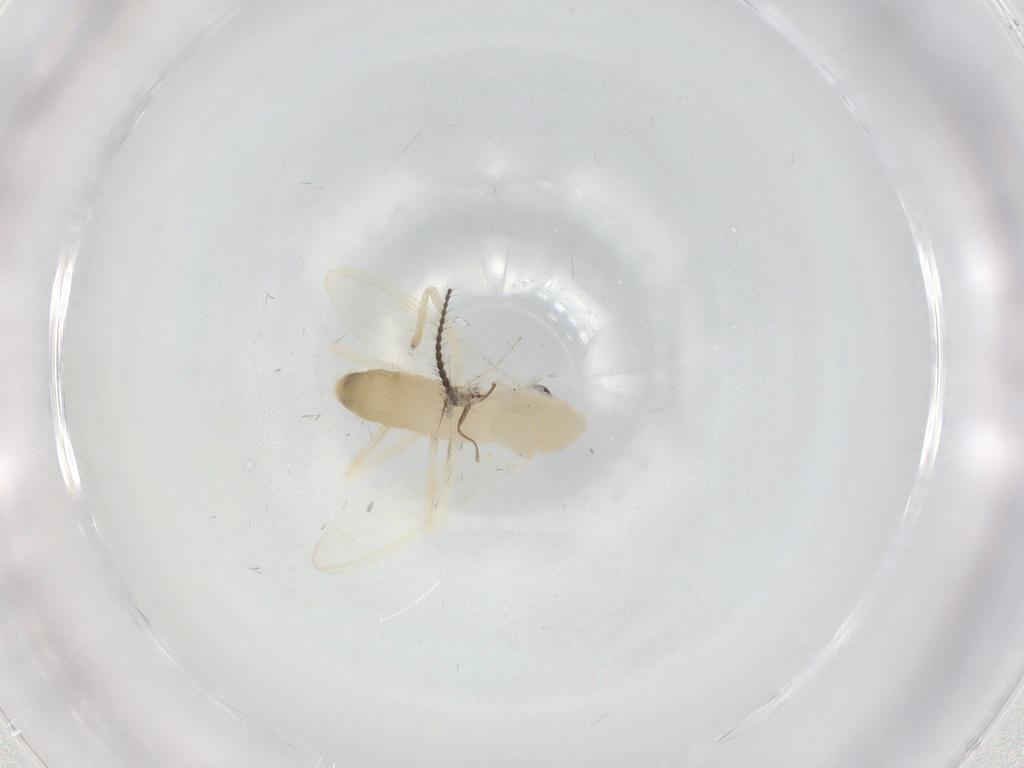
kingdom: Animalia
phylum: Arthropoda
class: Insecta
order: Diptera
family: Chironomidae
